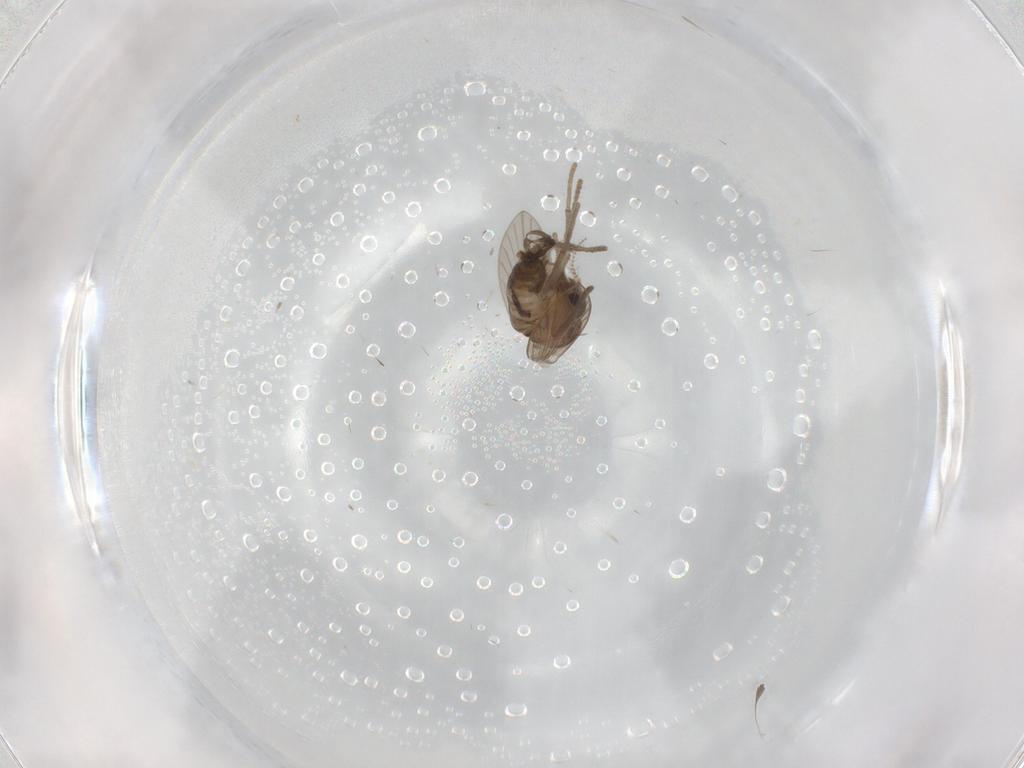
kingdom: Animalia
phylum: Arthropoda
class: Insecta
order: Diptera
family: Psychodidae
